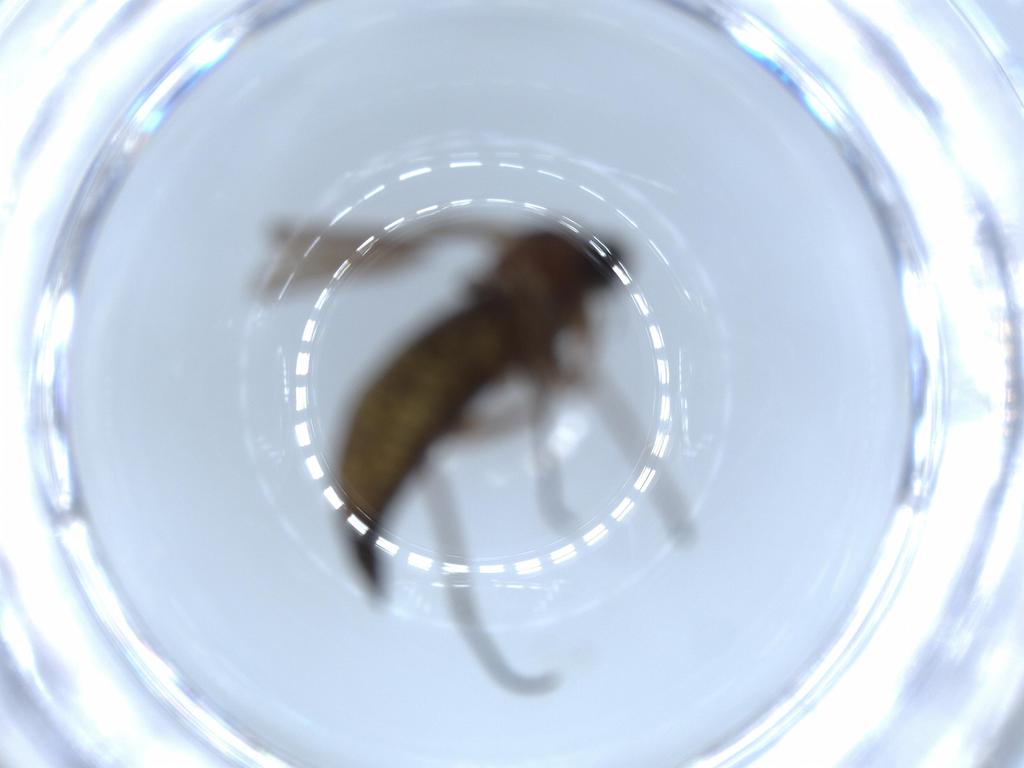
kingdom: Animalia
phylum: Arthropoda
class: Insecta
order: Diptera
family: Sciaridae
